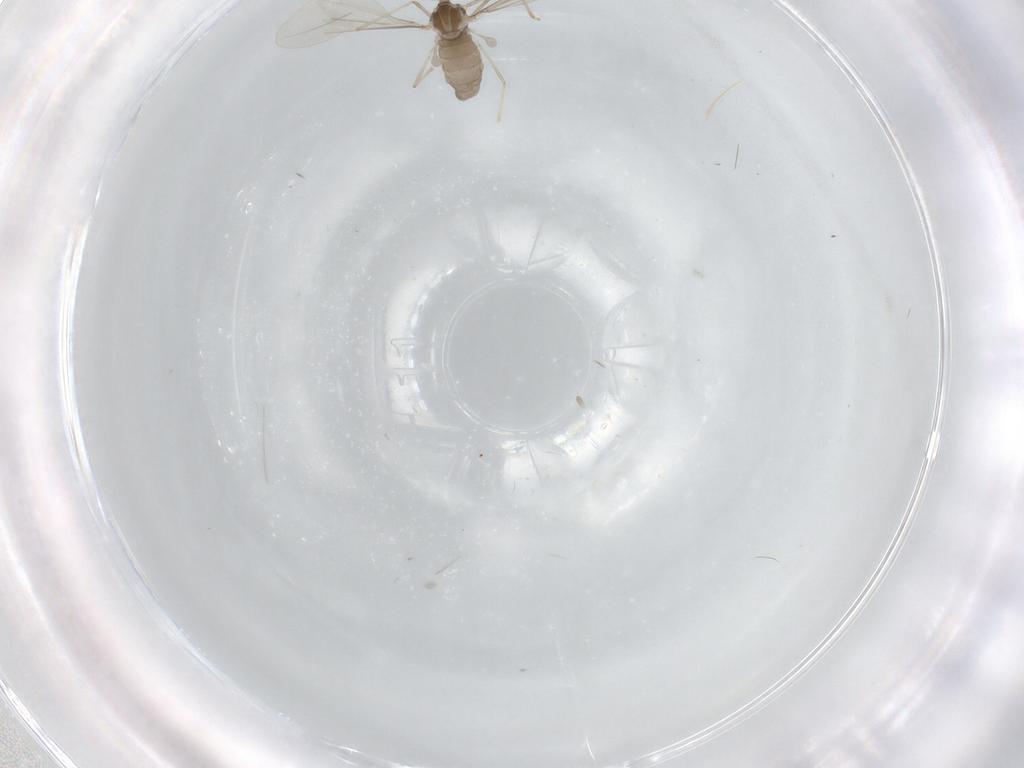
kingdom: Animalia
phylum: Arthropoda
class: Insecta
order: Diptera
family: Cecidomyiidae
